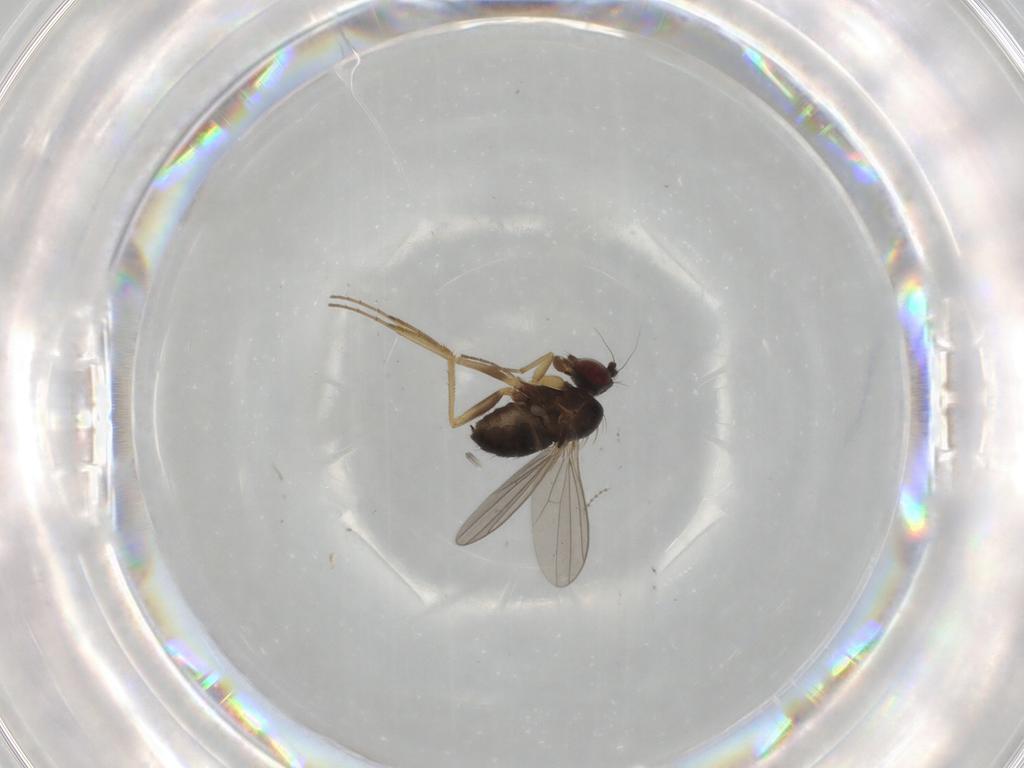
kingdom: Animalia
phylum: Arthropoda
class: Insecta
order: Diptera
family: Dolichopodidae
